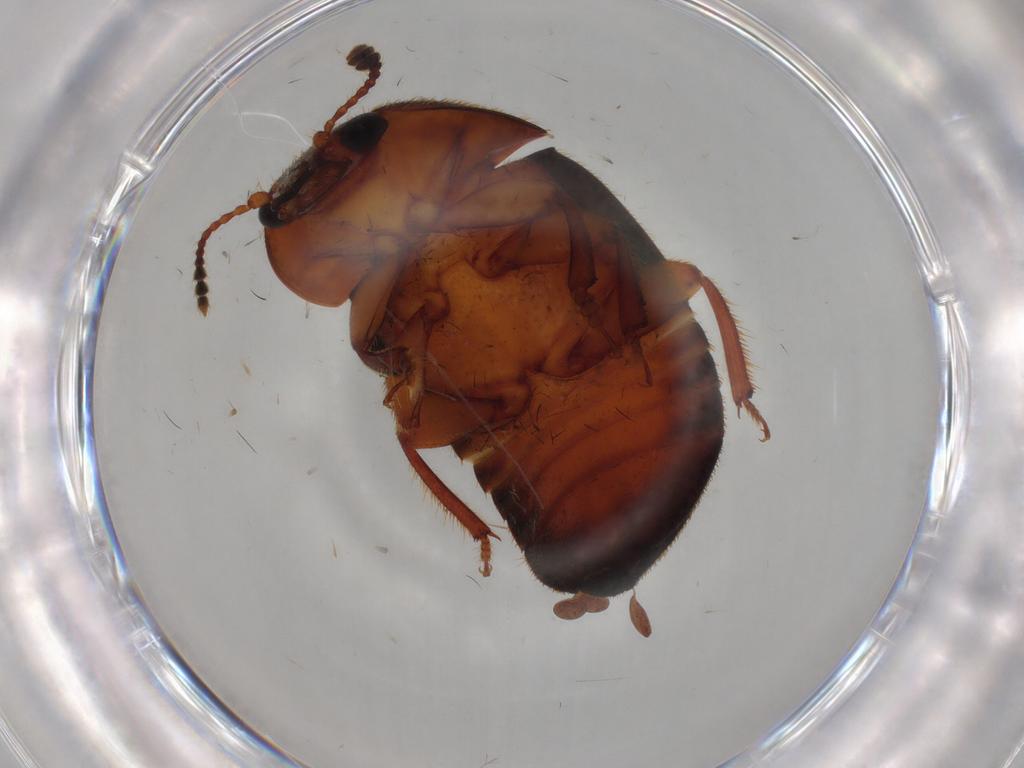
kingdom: Animalia
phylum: Arthropoda
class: Insecta
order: Coleoptera
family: Nitidulidae
